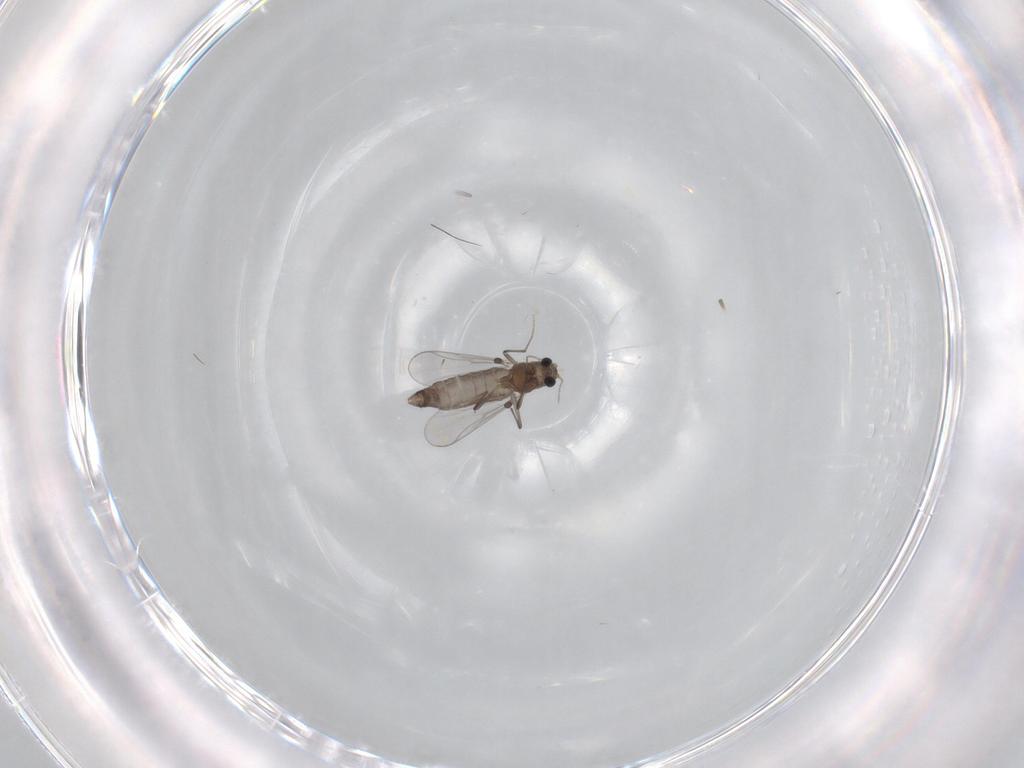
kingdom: Animalia
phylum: Arthropoda
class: Insecta
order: Diptera
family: Chironomidae
